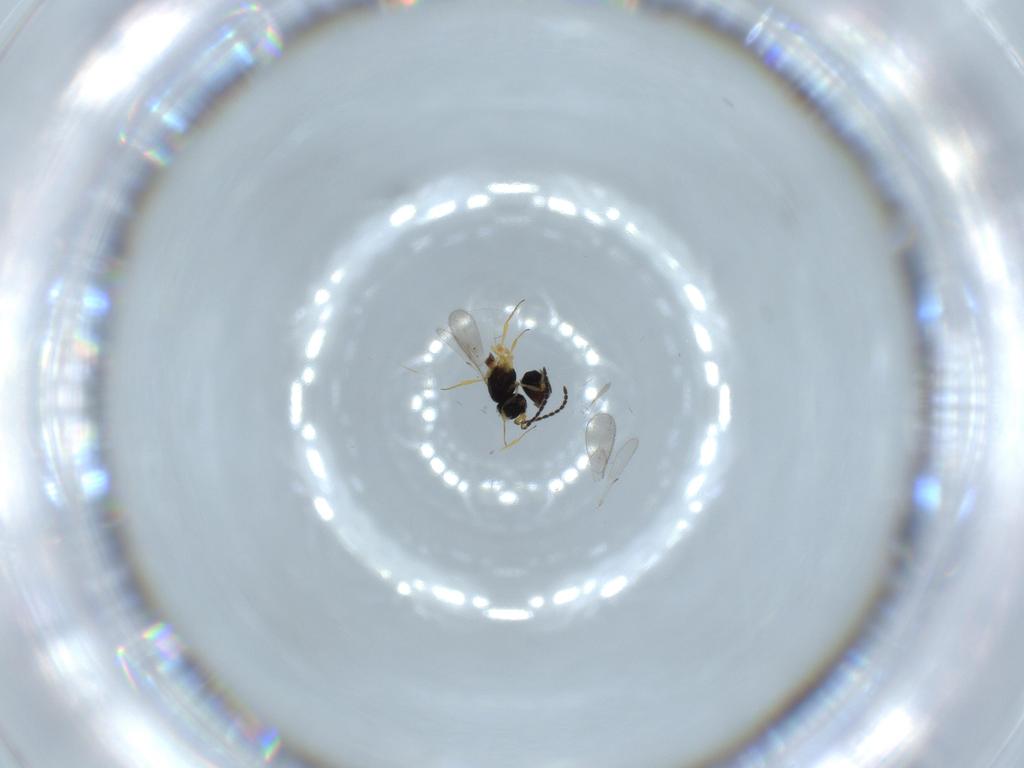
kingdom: Animalia
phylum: Arthropoda
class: Insecta
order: Hymenoptera
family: Scelionidae
